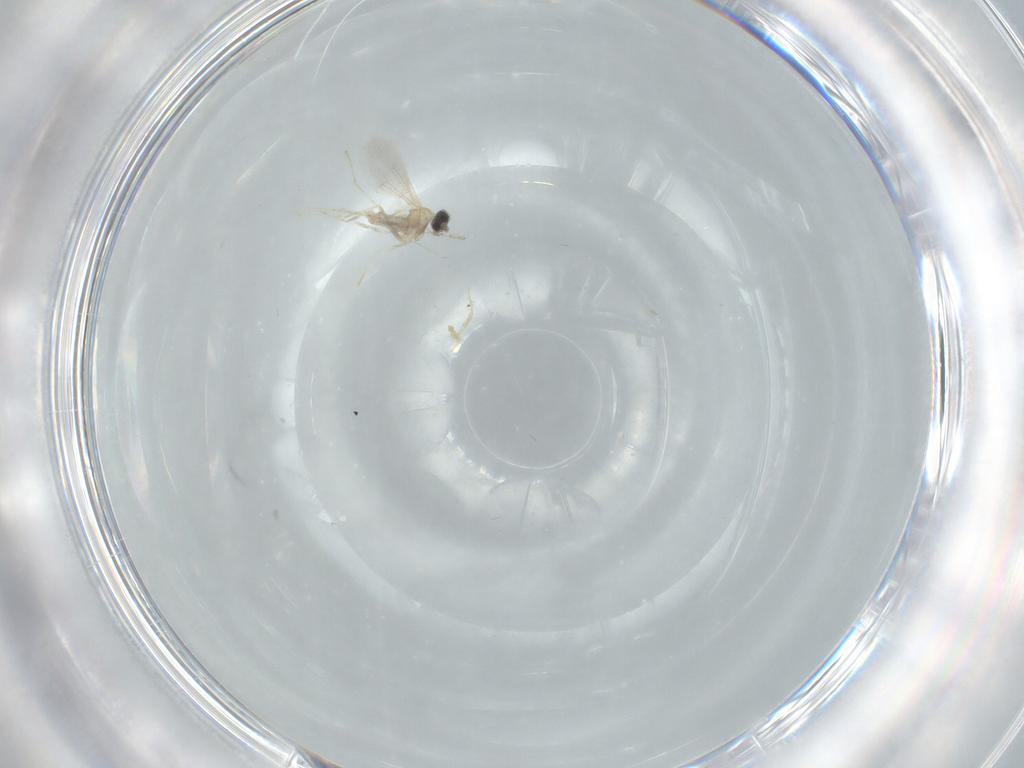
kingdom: Animalia
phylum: Arthropoda
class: Insecta
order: Diptera
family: Cecidomyiidae
